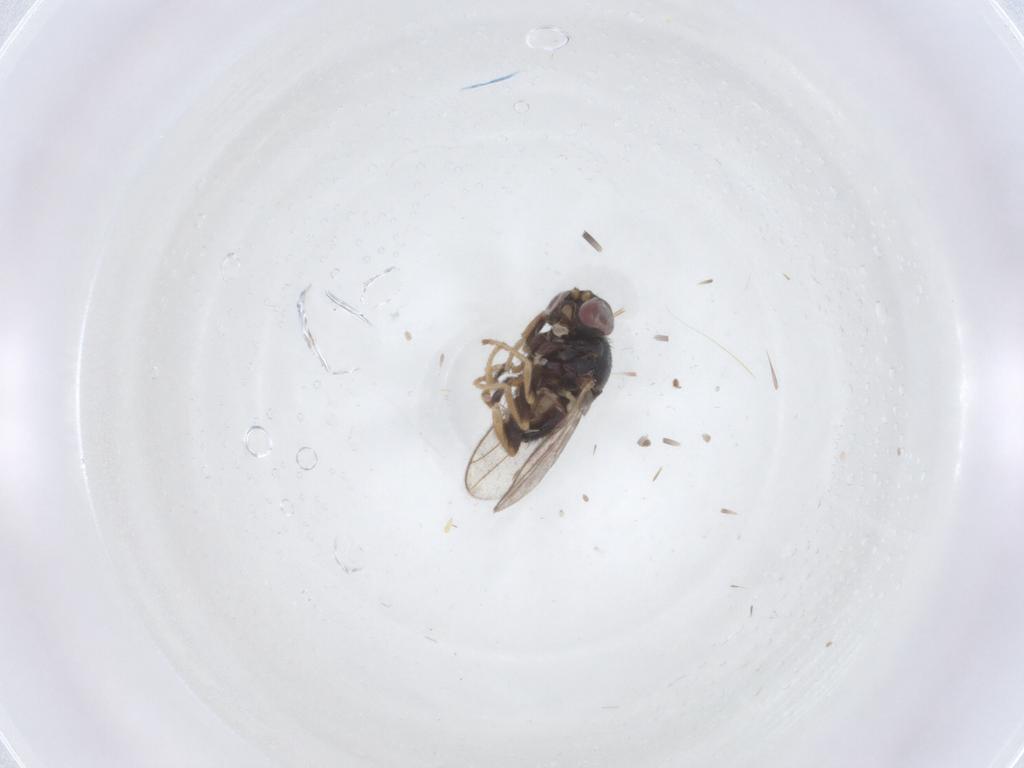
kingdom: Animalia
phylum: Arthropoda
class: Insecta
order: Diptera
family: Chloropidae
